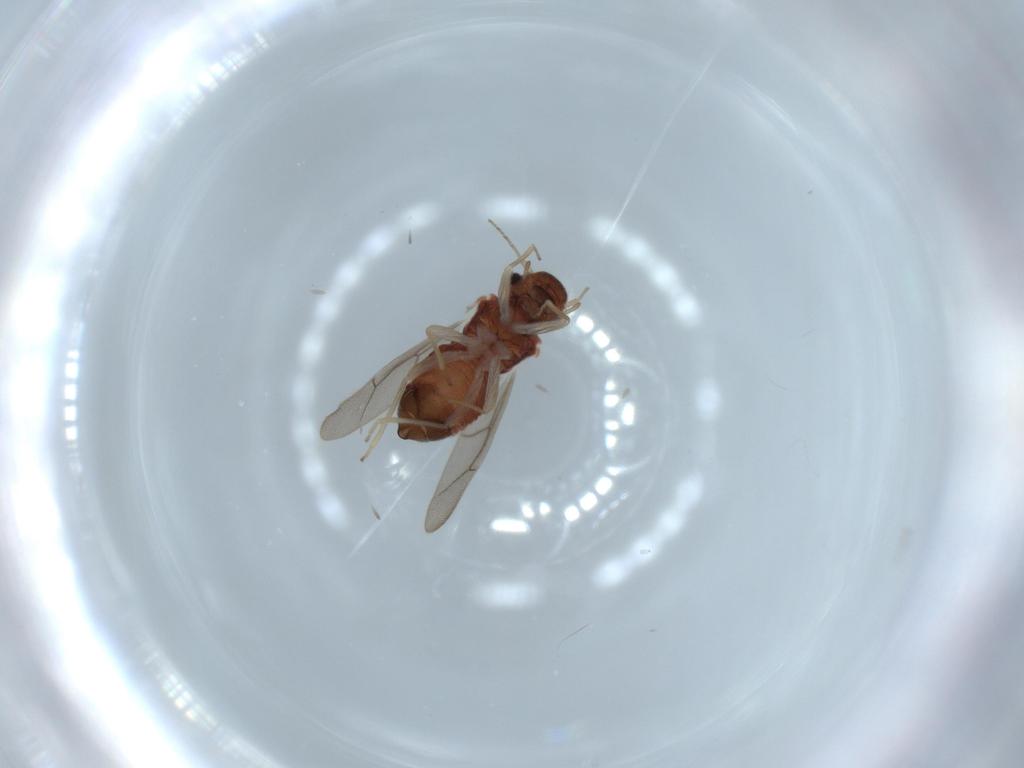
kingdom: Animalia
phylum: Arthropoda
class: Insecta
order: Psocodea
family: Archipsocidae
